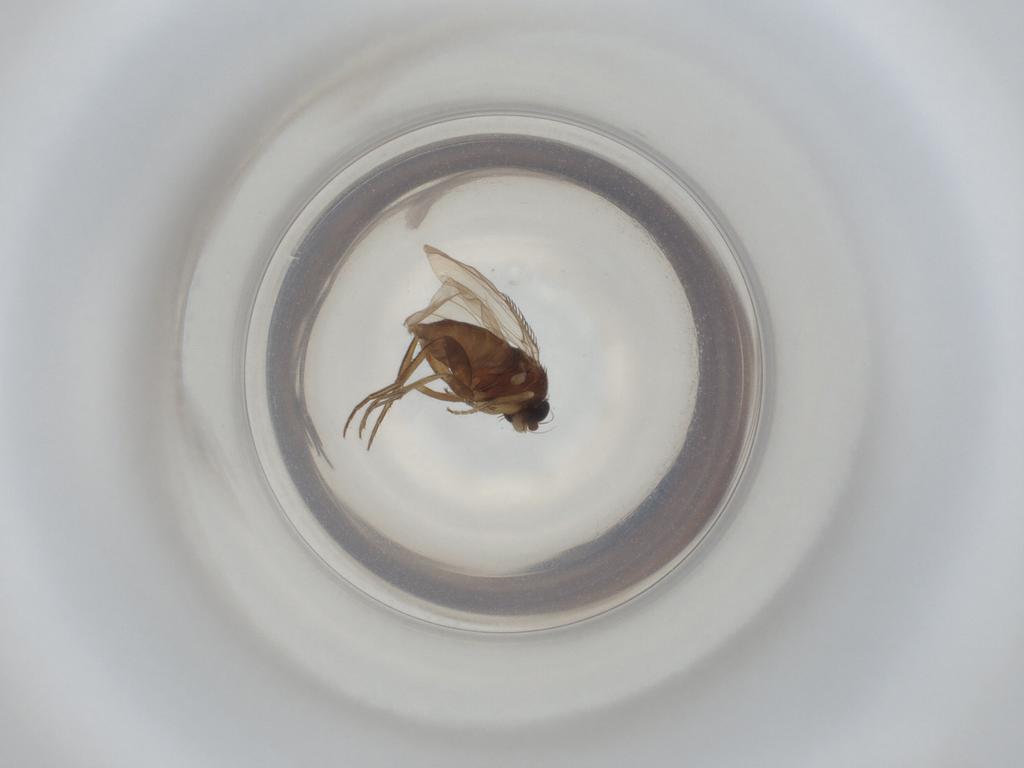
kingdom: Animalia
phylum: Arthropoda
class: Insecta
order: Diptera
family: Phoridae
